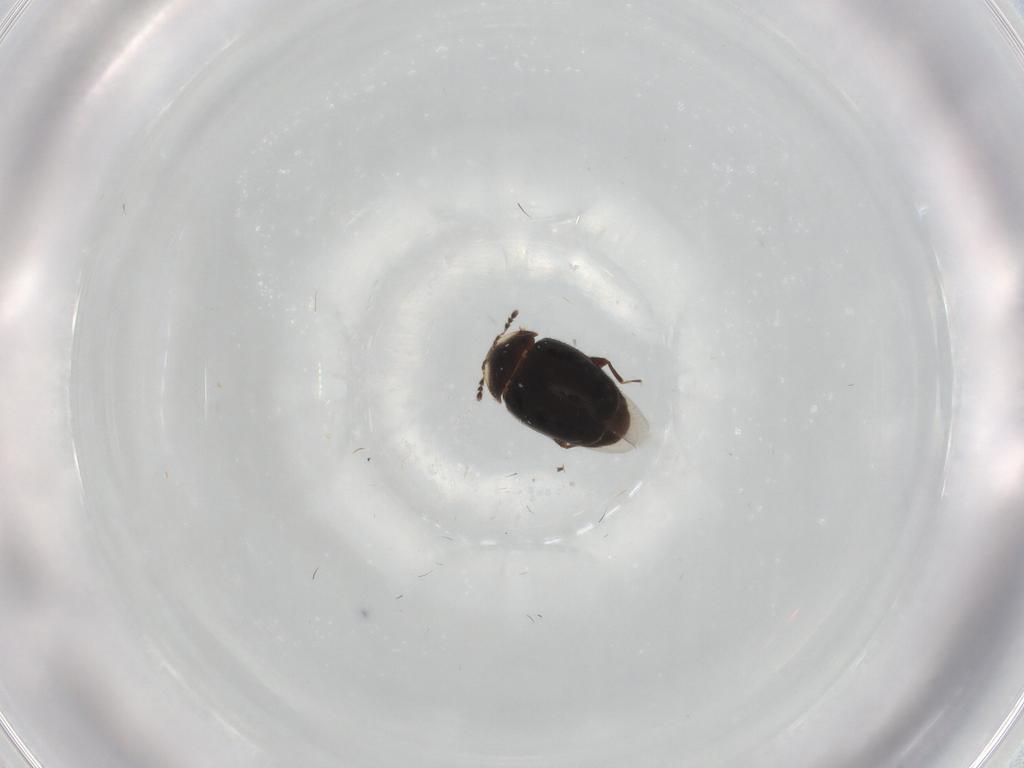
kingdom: Animalia
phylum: Arthropoda
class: Insecta
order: Coleoptera
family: Corylophidae
